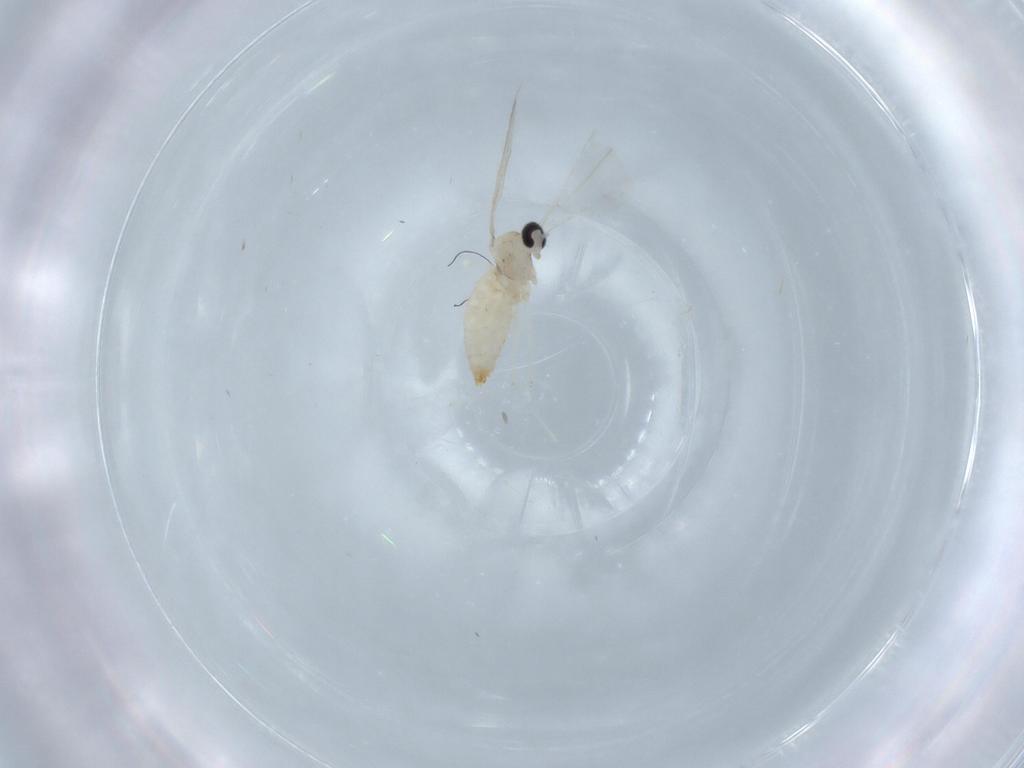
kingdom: Animalia
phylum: Arthropoda
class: Insecta
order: Diptera
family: Cecidomyiidae
